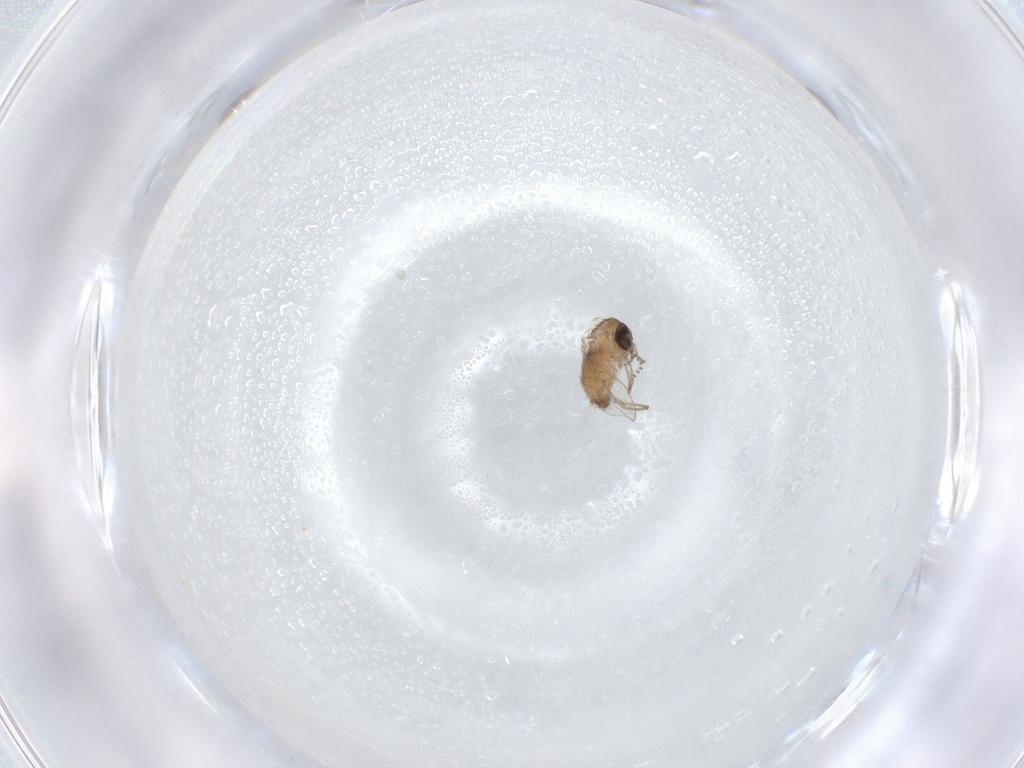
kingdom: Animalia
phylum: Arthropoda
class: Insecta
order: Diptera
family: Psychodidae
